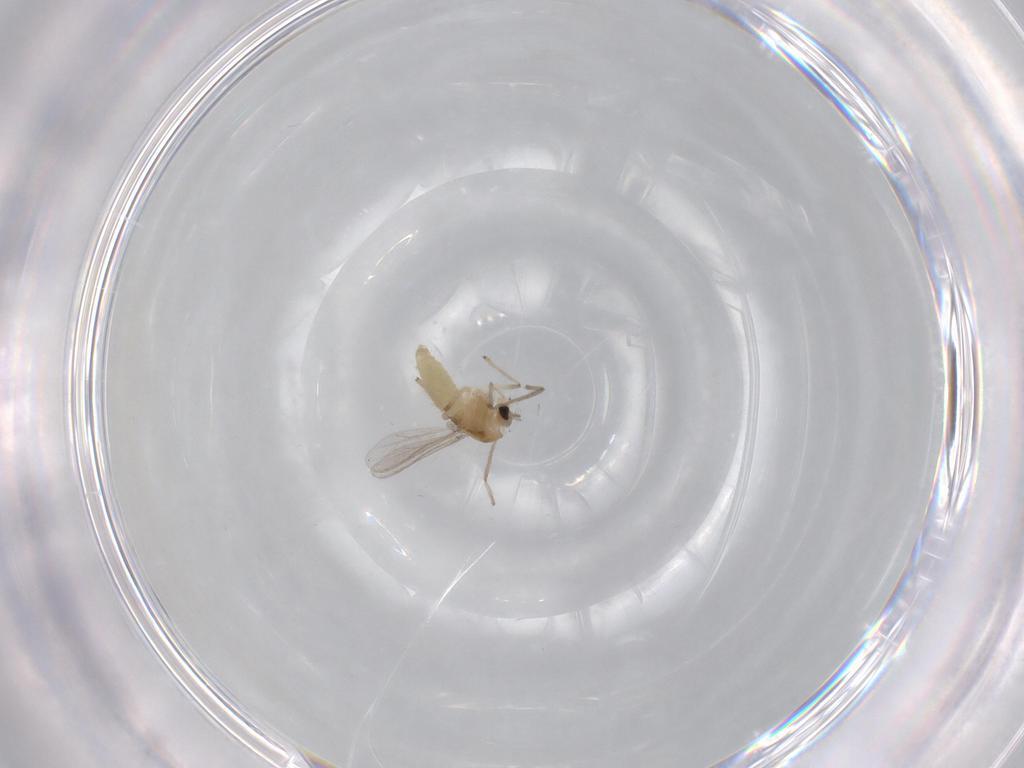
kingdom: Animalia
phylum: Arthropoda
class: Insecta
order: Diptera
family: Chironomidae
